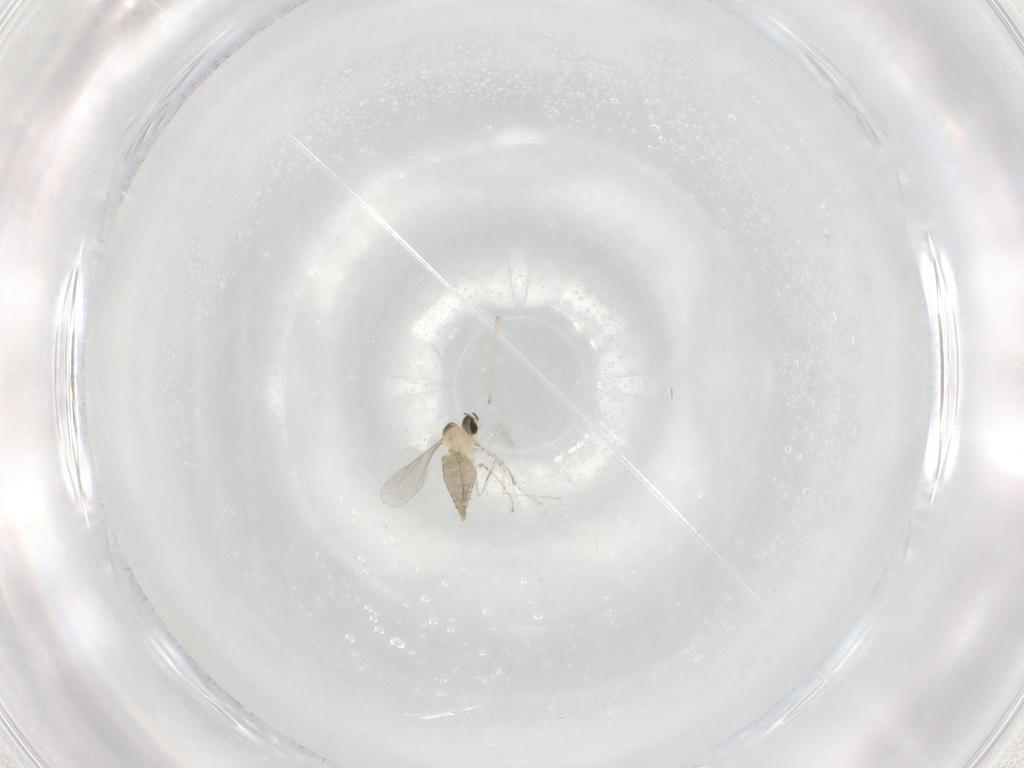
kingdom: Animalia
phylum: Arthropoda
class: Insecta
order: Diptera
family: Cecidomyiidae
